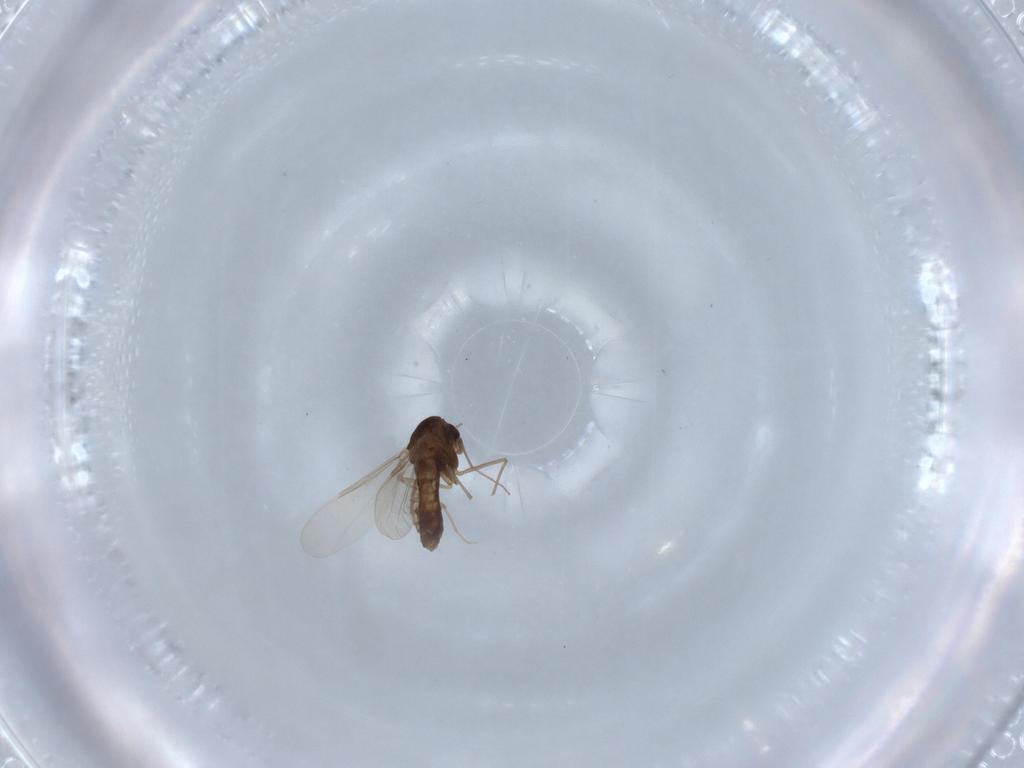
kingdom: Animalia
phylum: Arthropoda
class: Insecta
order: Diptera
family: Chironomidae
